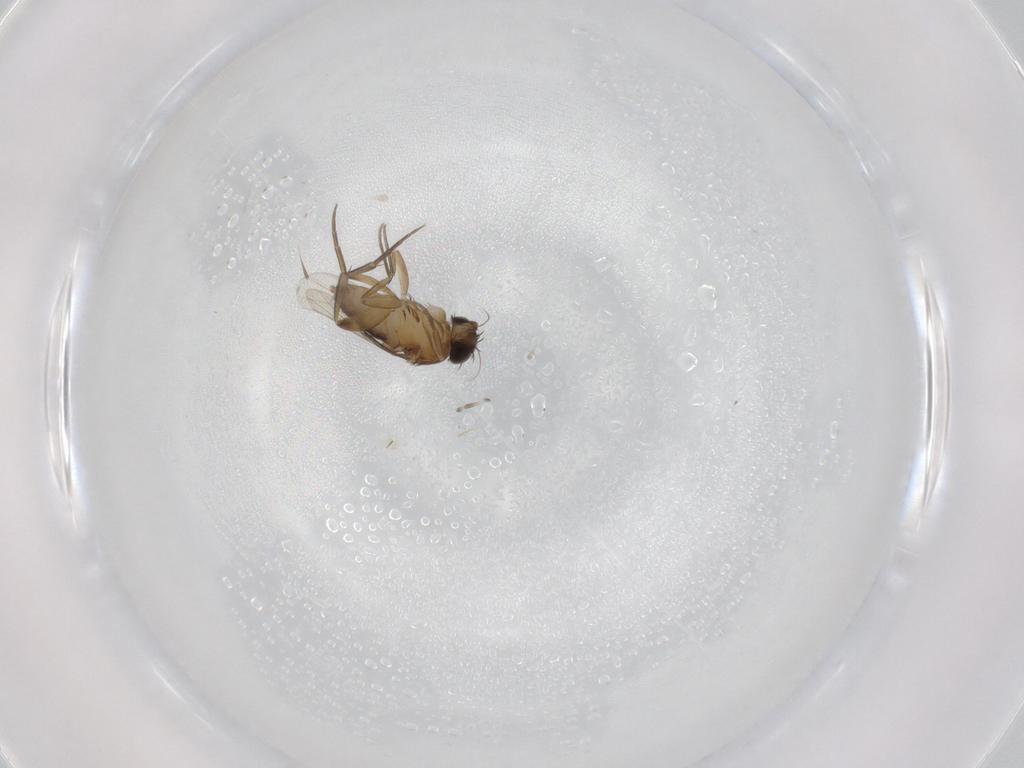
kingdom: Animalia
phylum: Arthropoda
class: Insecta
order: Diptera
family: Phoridae
